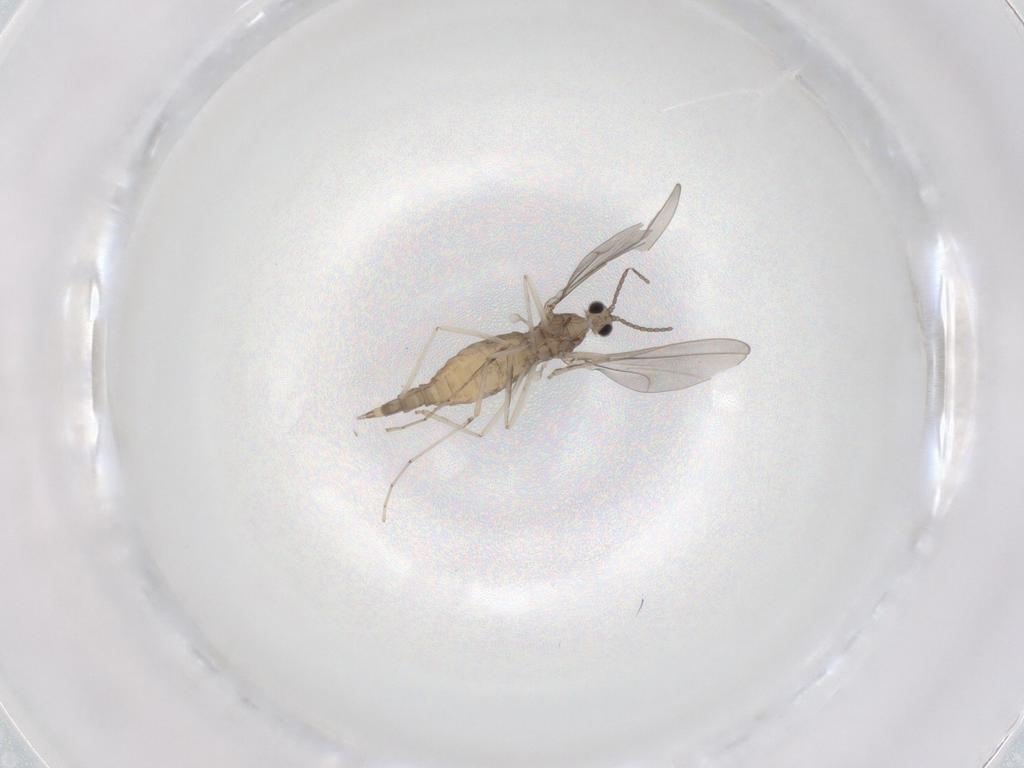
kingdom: Animalia
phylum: Arthropoda
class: Insecta
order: Diptera
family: Cecidomyiidae
